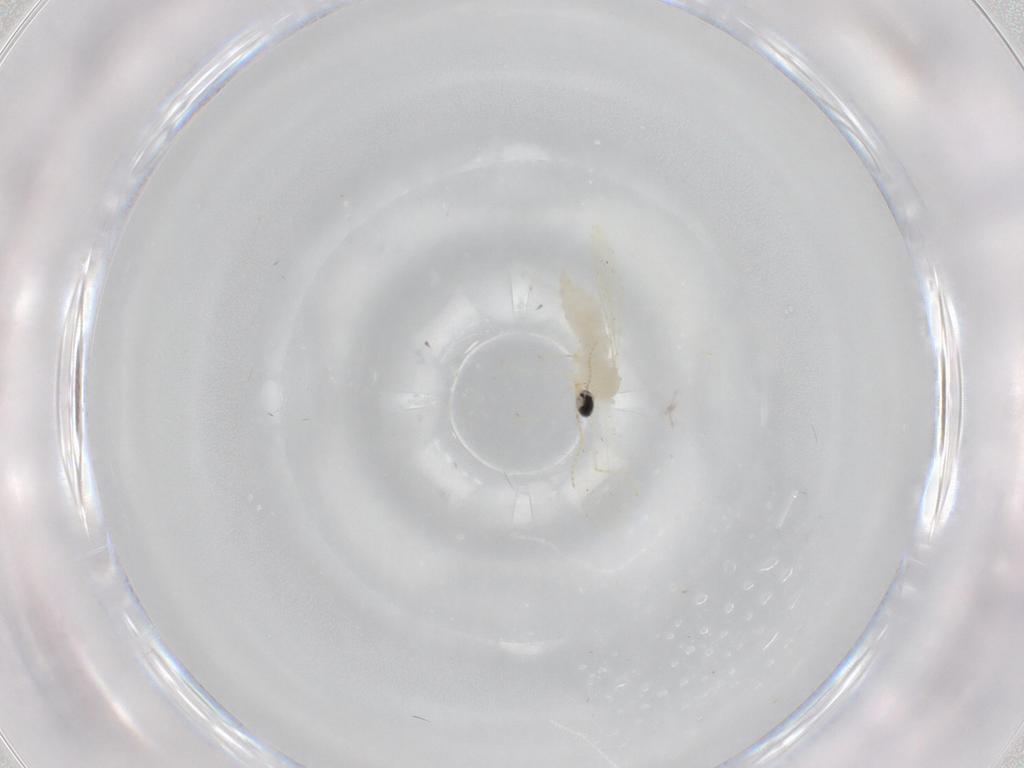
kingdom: Animalia
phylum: Arthropoda
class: Insecta
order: Diptera
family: Cecidomyiidae
